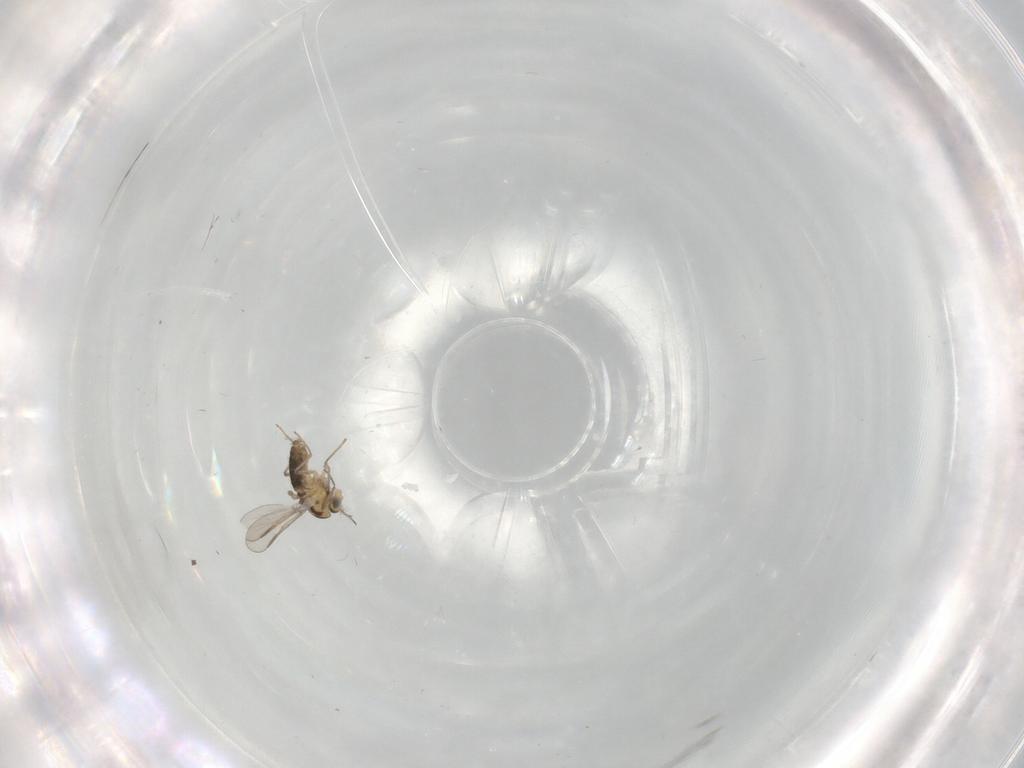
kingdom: Animalia
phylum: Arthropoda
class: Insecta
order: Diptera
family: Chironomidae
